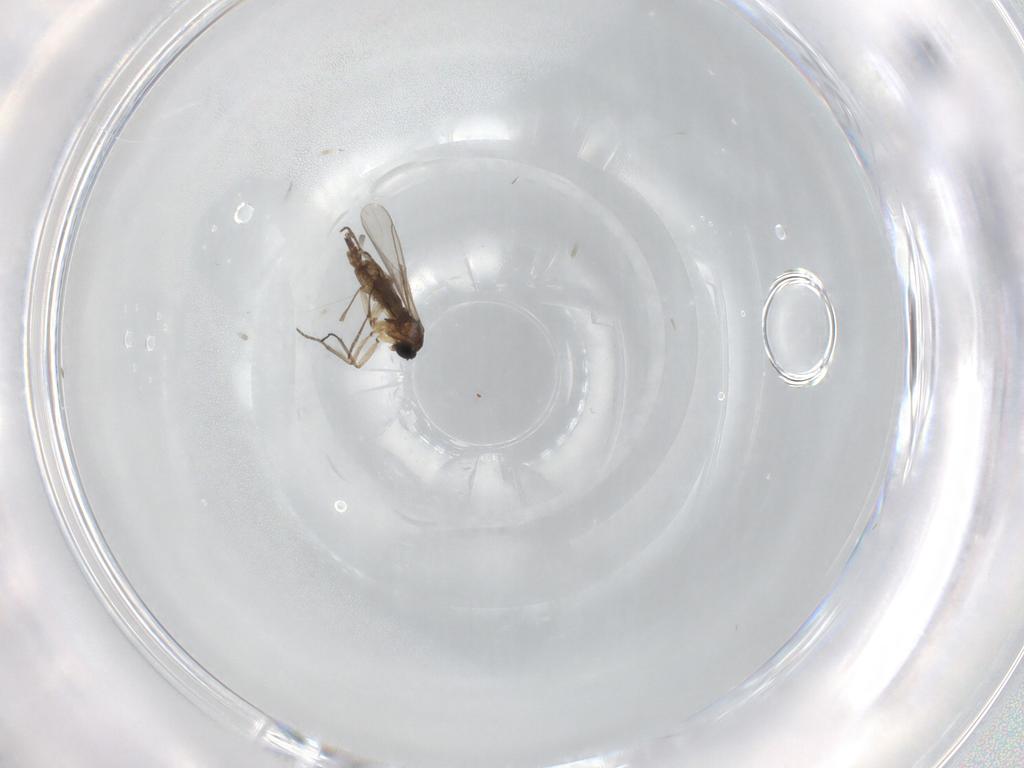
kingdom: Animalia
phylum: Arthropoda
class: Insecta
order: Diptera
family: Sciaridae
